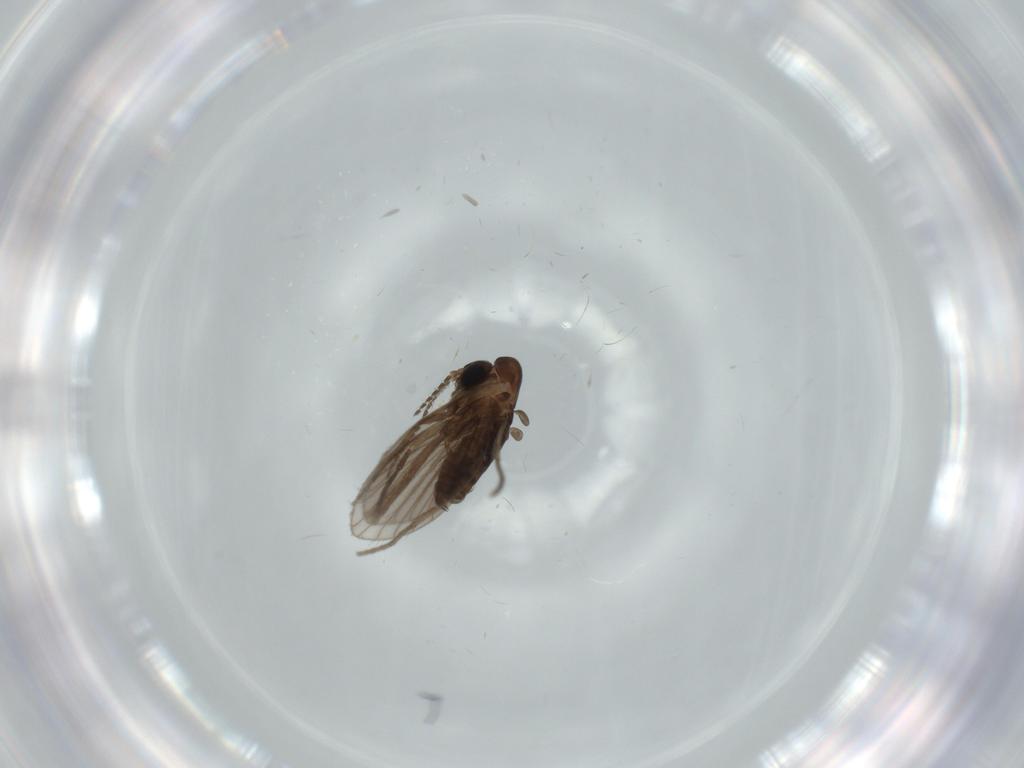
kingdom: Animalia
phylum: Arthropoda
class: Insecta
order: Diptera
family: Psychodidae
